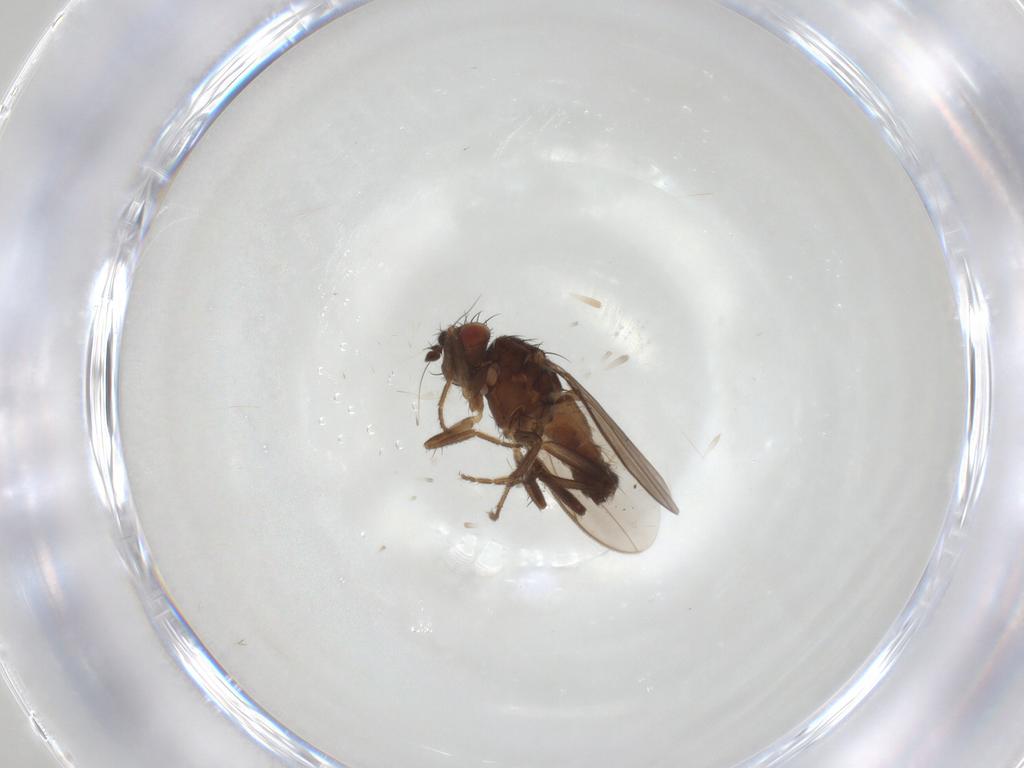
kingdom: Animalia
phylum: Arthropoda
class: Insecta
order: Diptera
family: Sphaeroceridae
